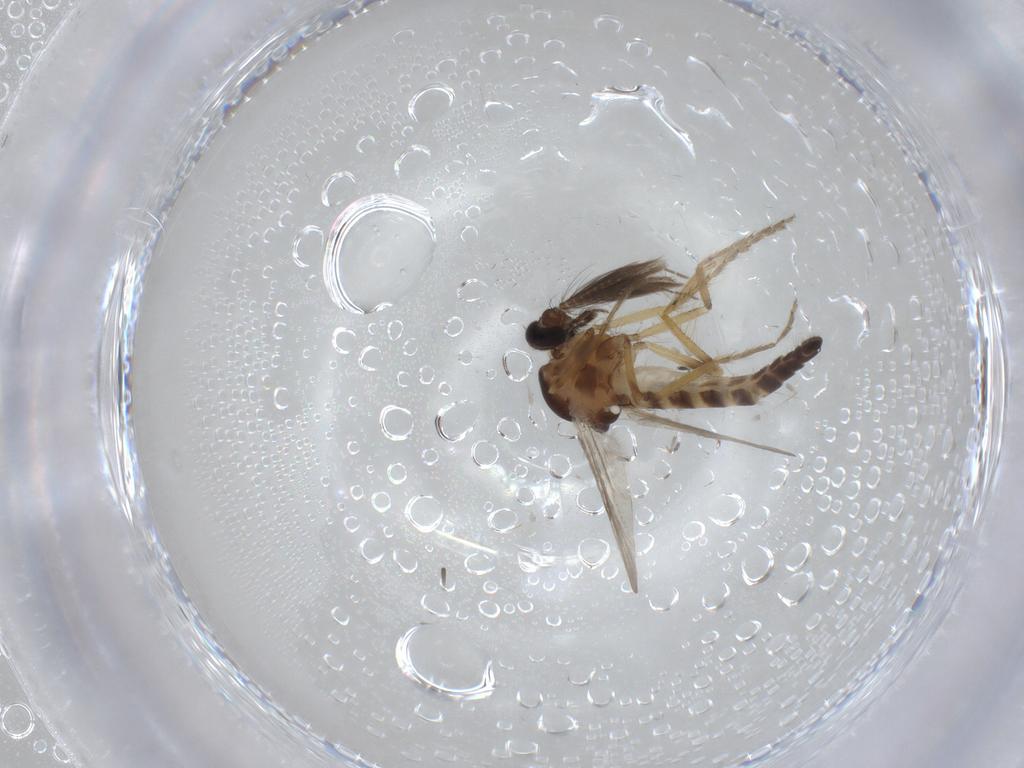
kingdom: Animalia
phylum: Arthropoda
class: Insecta
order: Diptera
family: Ceratopogonidae
